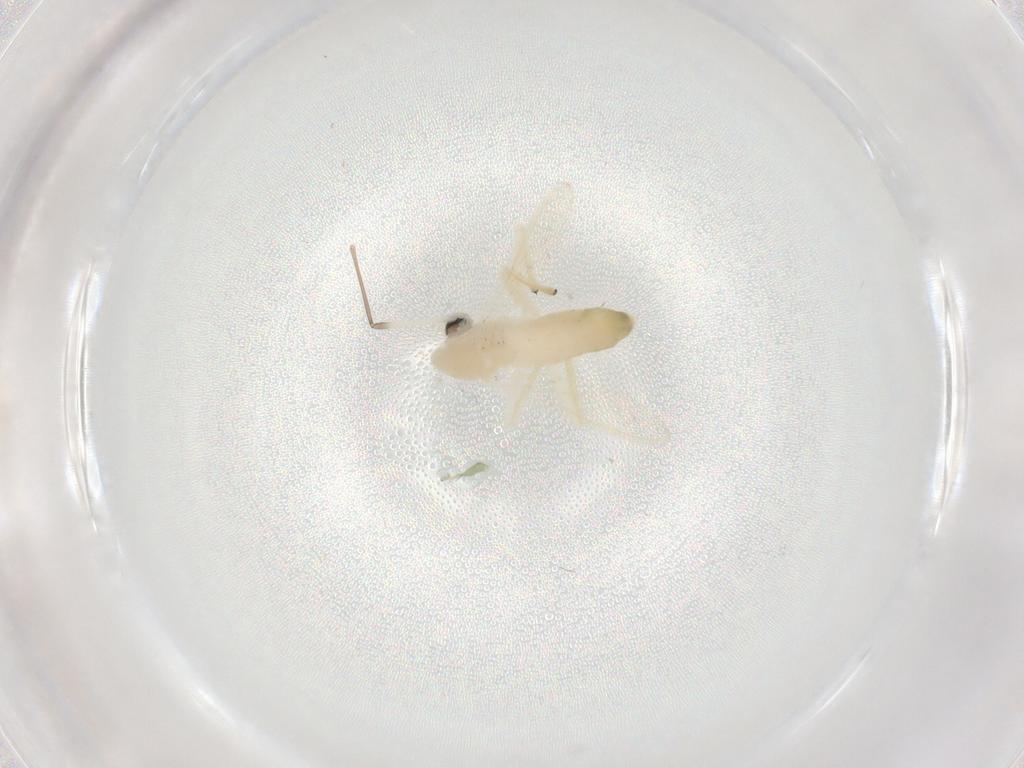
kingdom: Animalia
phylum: Arthropoda
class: Insecta
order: Diptera
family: Chironomidae
